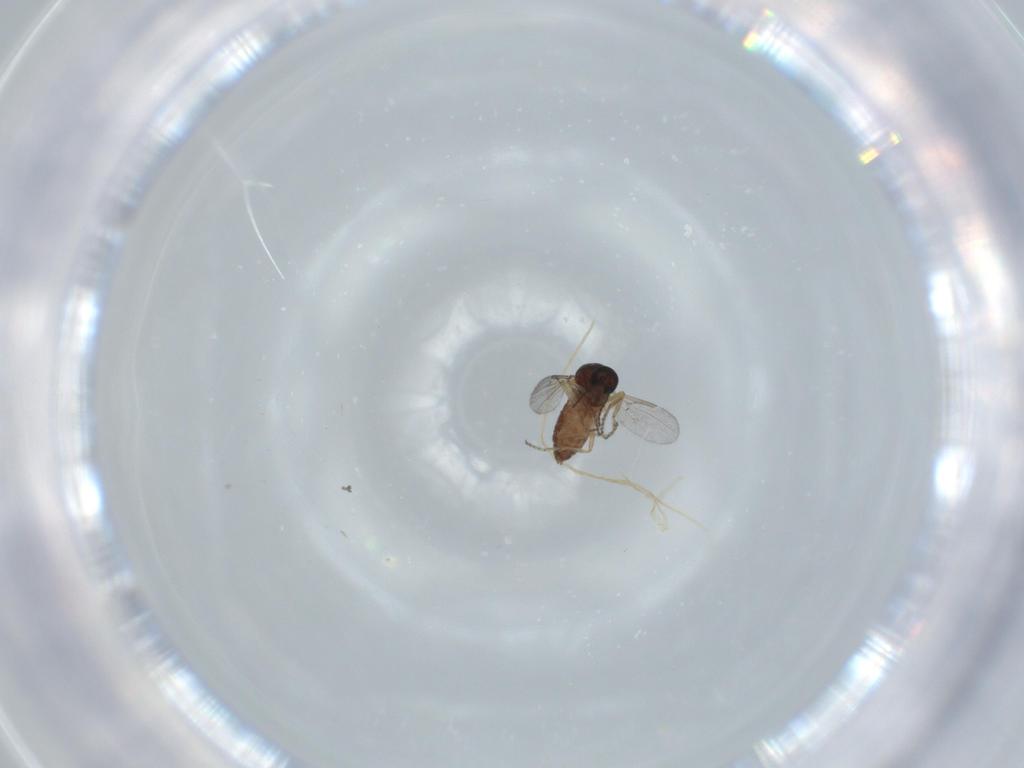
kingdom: Animalia
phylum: Arthropoda
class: Insecta
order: Diptera
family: Ceratopogonidae
